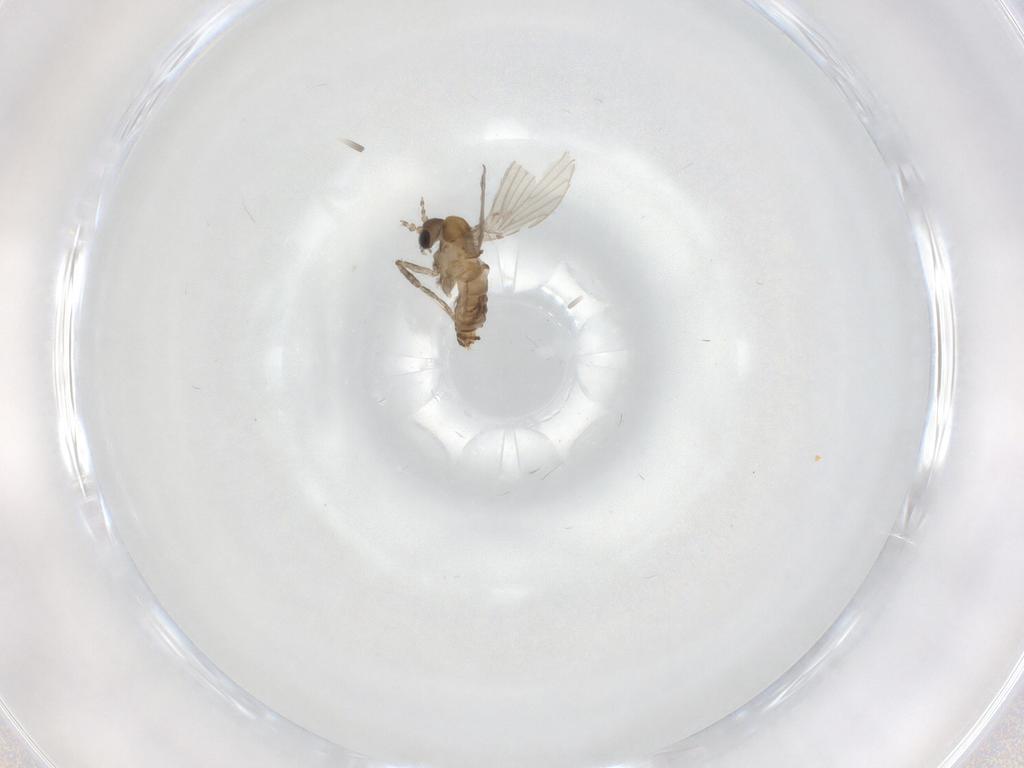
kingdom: Animalia
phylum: Arthropoda
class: Insecta
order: Diptera
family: Psychodidae
